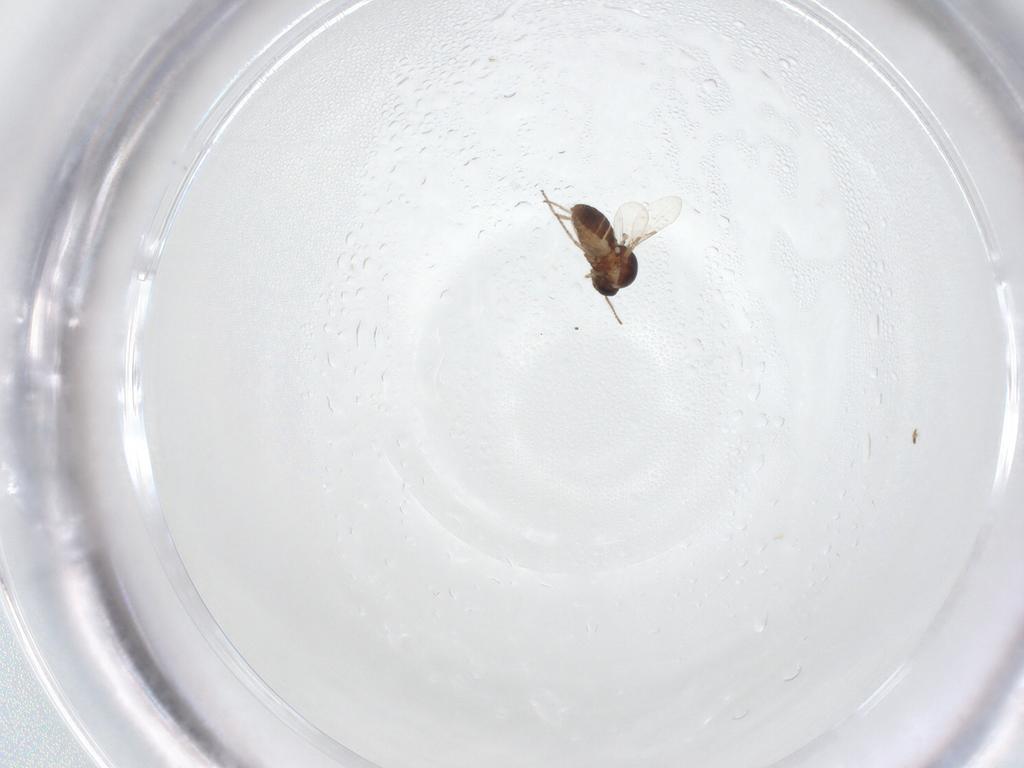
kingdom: Animalia
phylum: Arthropoda
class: Insecta
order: Diptera
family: Ceratopogonidae
